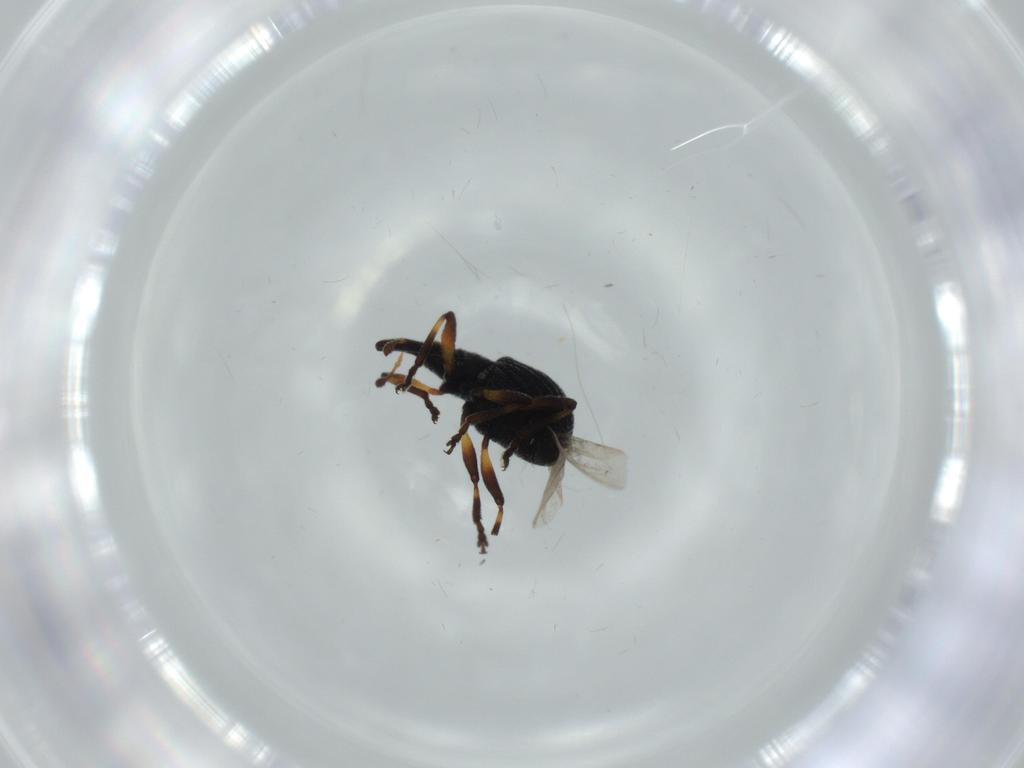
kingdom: Animalia
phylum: Arthropoda
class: Insecta
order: Coleoptera
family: Brentidae
